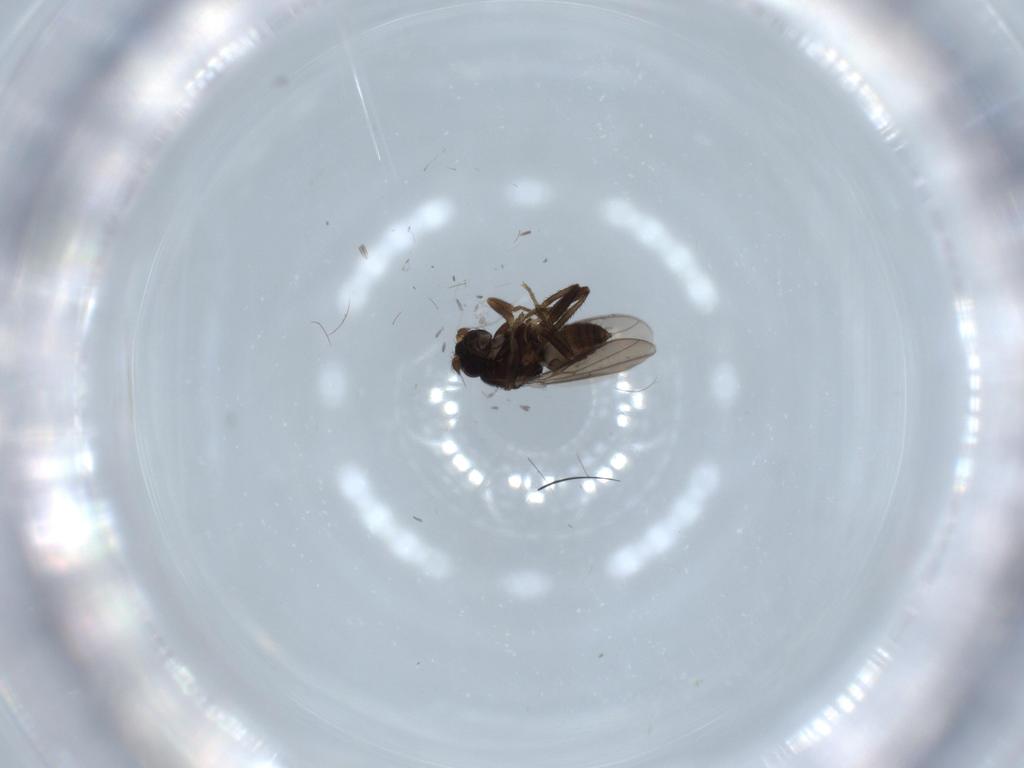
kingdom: Animalia
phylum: Arthropoda
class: Insecta
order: Diptera
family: Sphaeroceridae
